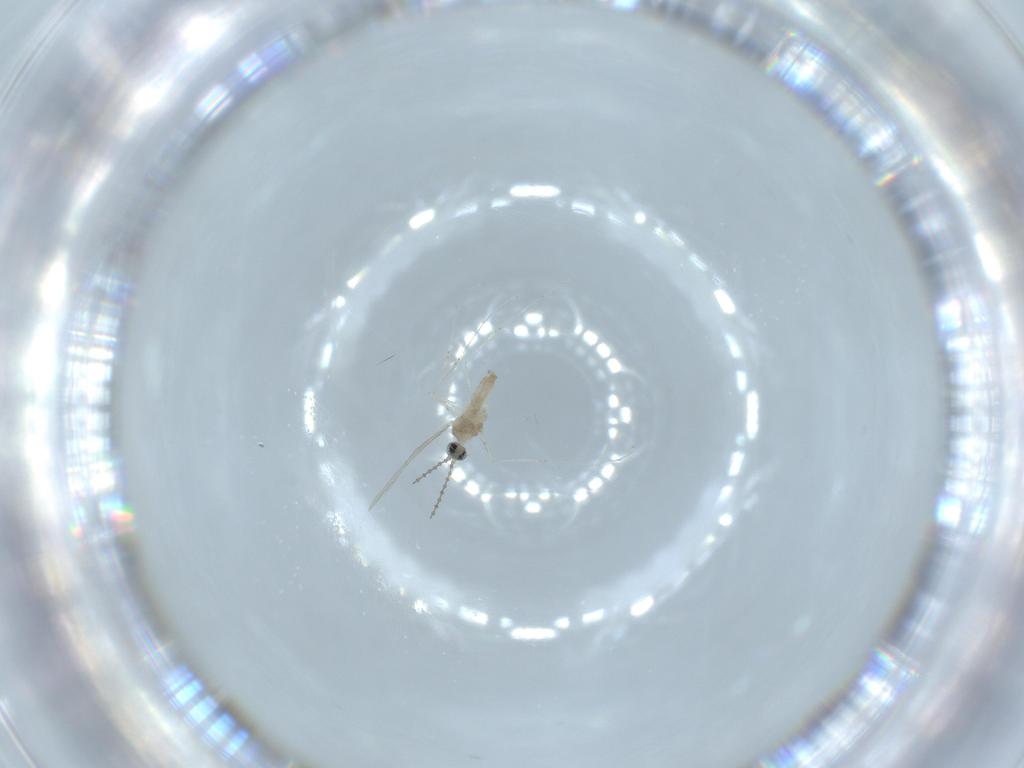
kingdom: Animalia
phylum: Arthropoda
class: Insecta
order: Diptera
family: Cecidomyiidae
